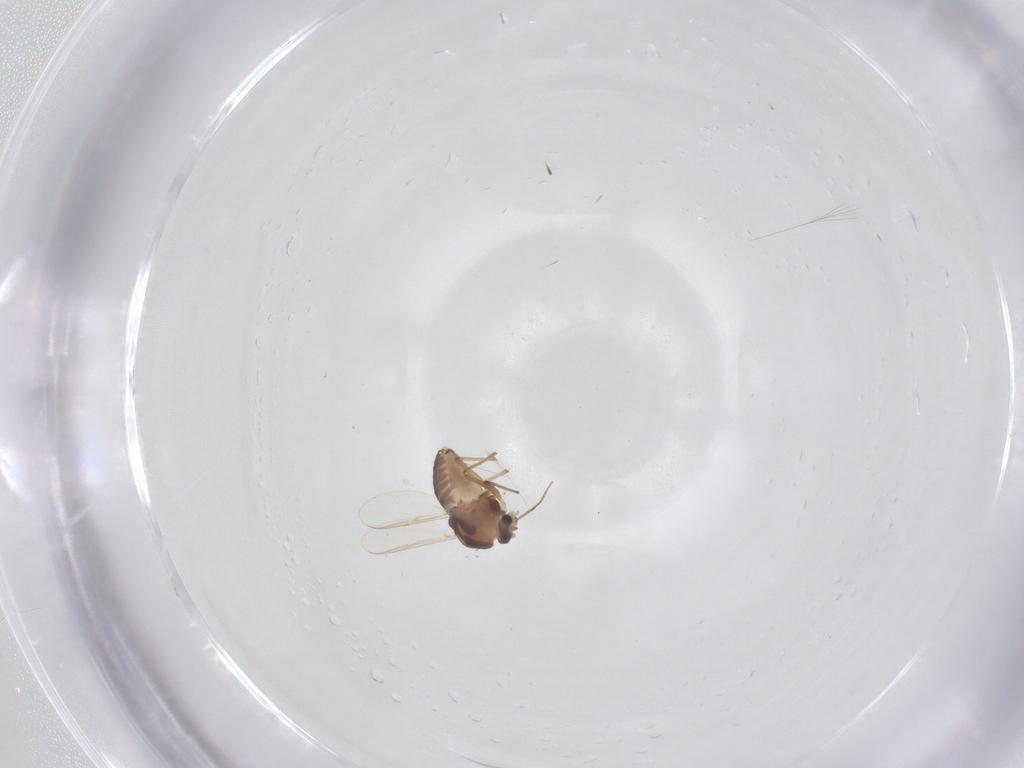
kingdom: Animalia
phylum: Arthropoda
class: Insecta
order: Diptera
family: Chironomidae
